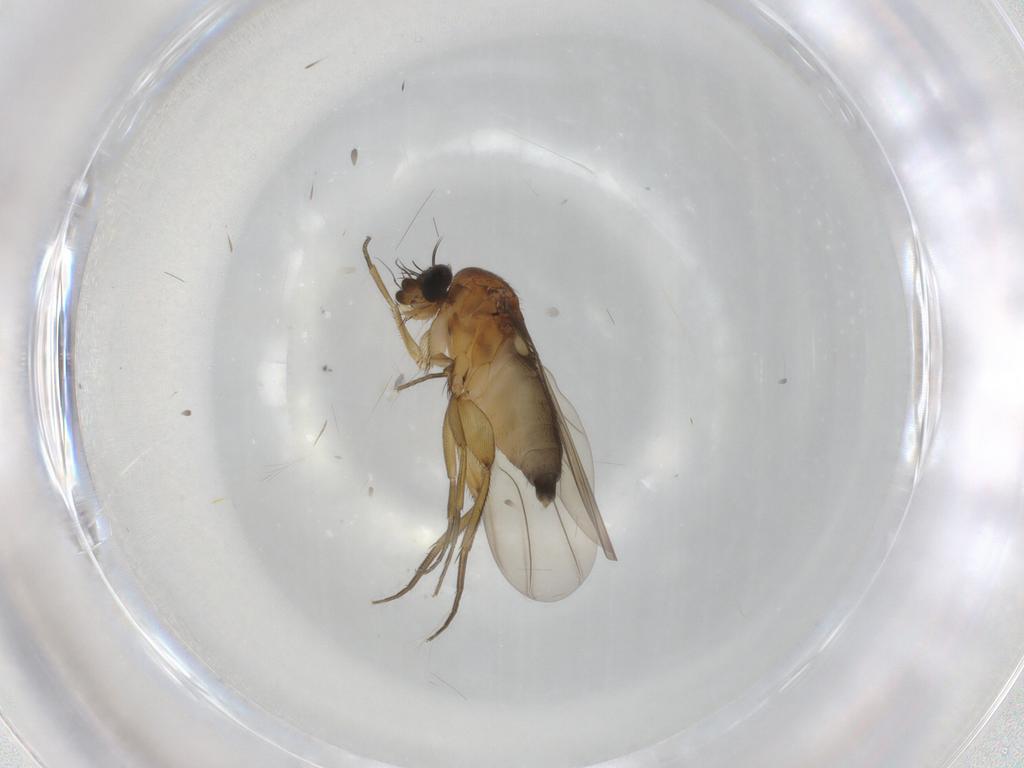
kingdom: Animalia
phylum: Arthropoda
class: Insecta
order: Diptera
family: Phoridae
